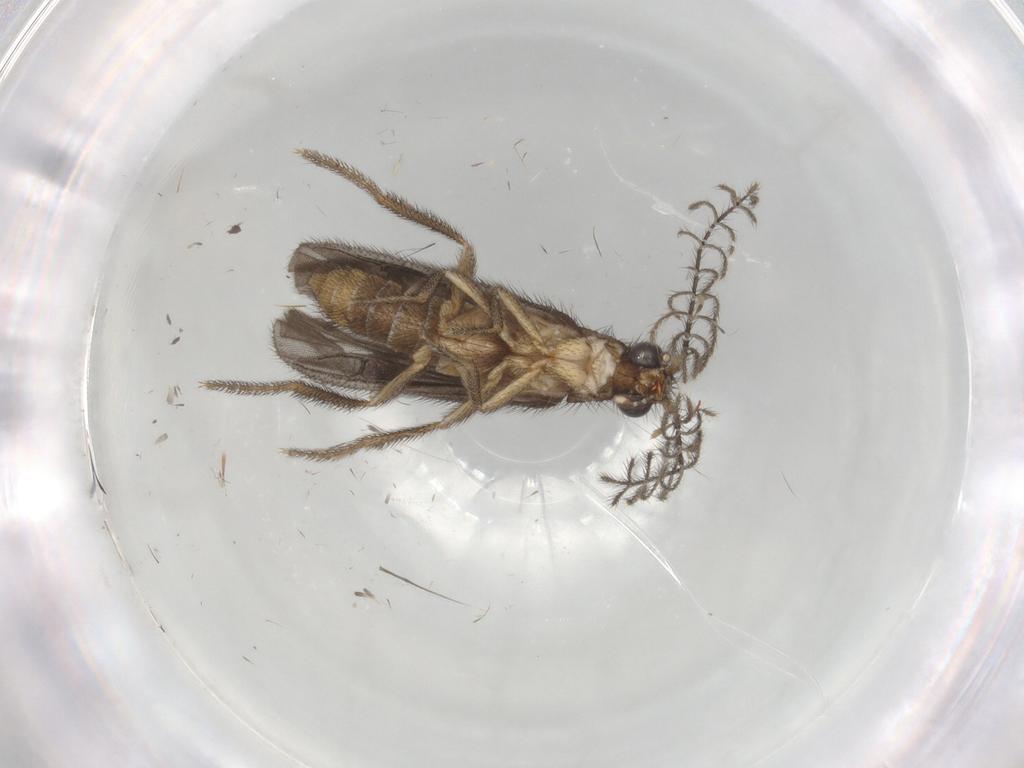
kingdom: Animalia
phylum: Arthropoda
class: Insecta
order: Coleoptera
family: Phengodidae
